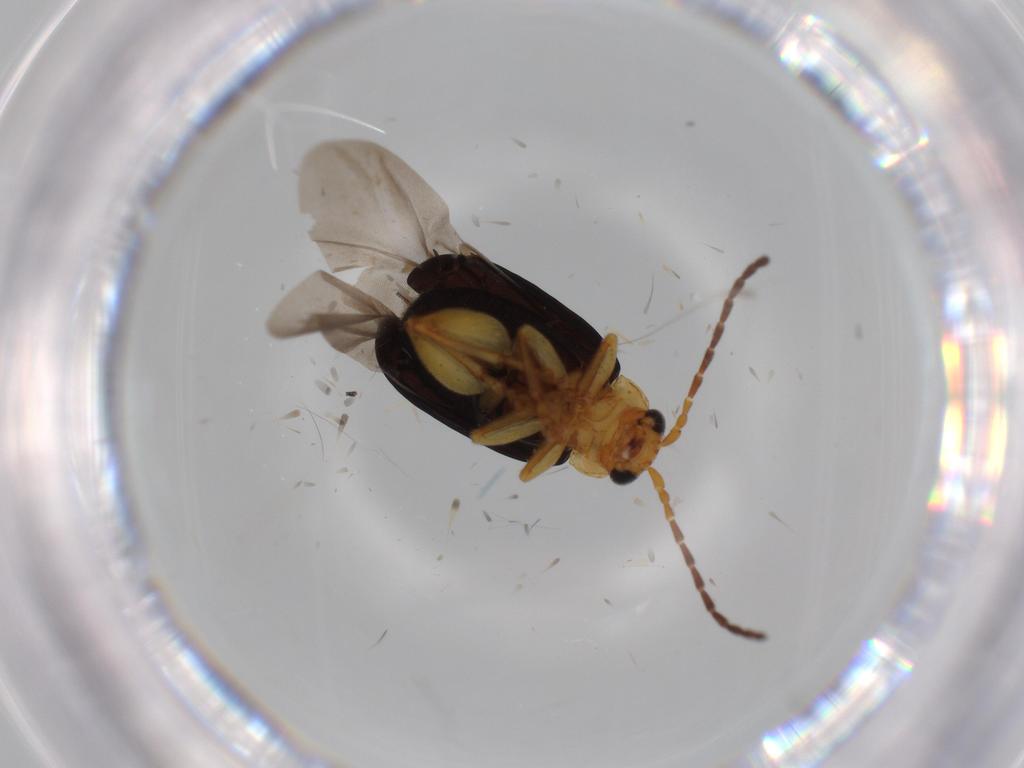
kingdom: Animalia
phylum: Arthropoda
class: Insecta
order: Coleoptera
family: Chrysomelidae
